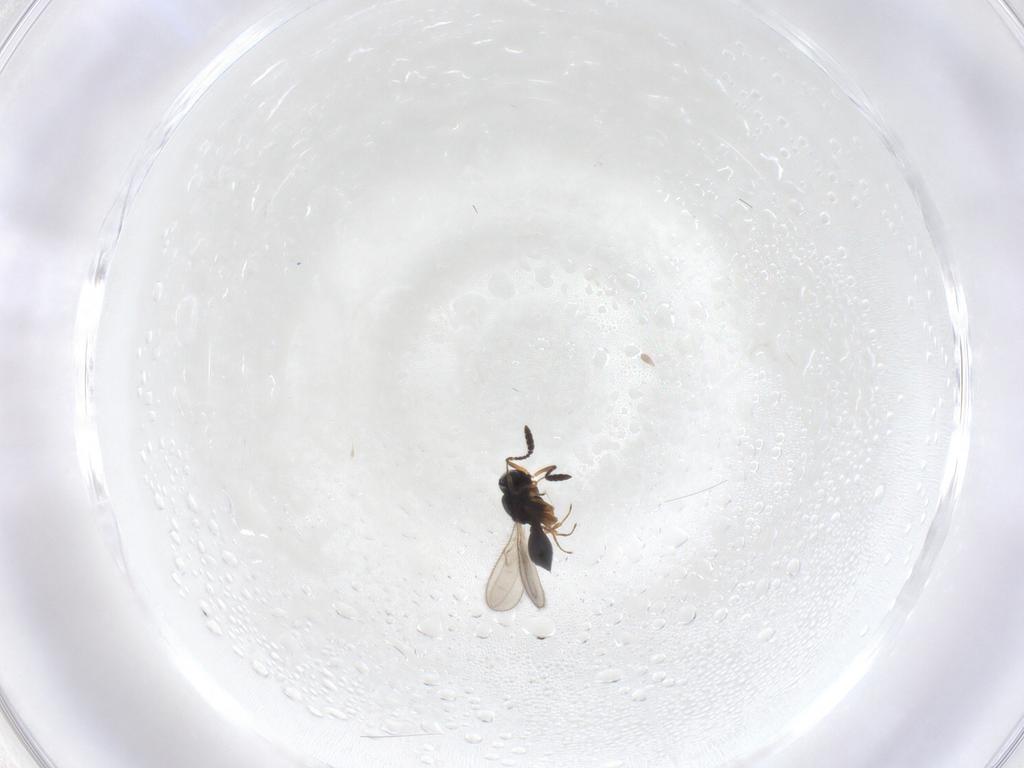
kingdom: Animalia
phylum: Arthropoda
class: Insecta
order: Hymenoptera
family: Scelionidae
